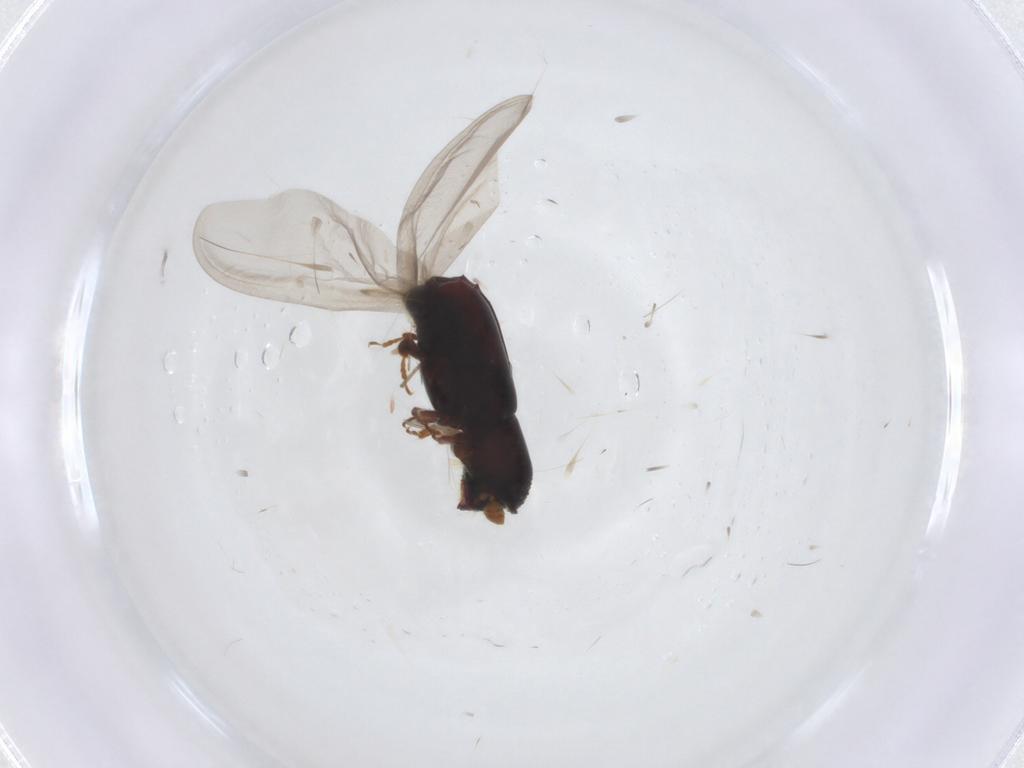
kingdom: Animalia
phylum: Arthropoda
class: Insecta
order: Coleoptera
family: Curculionidae
